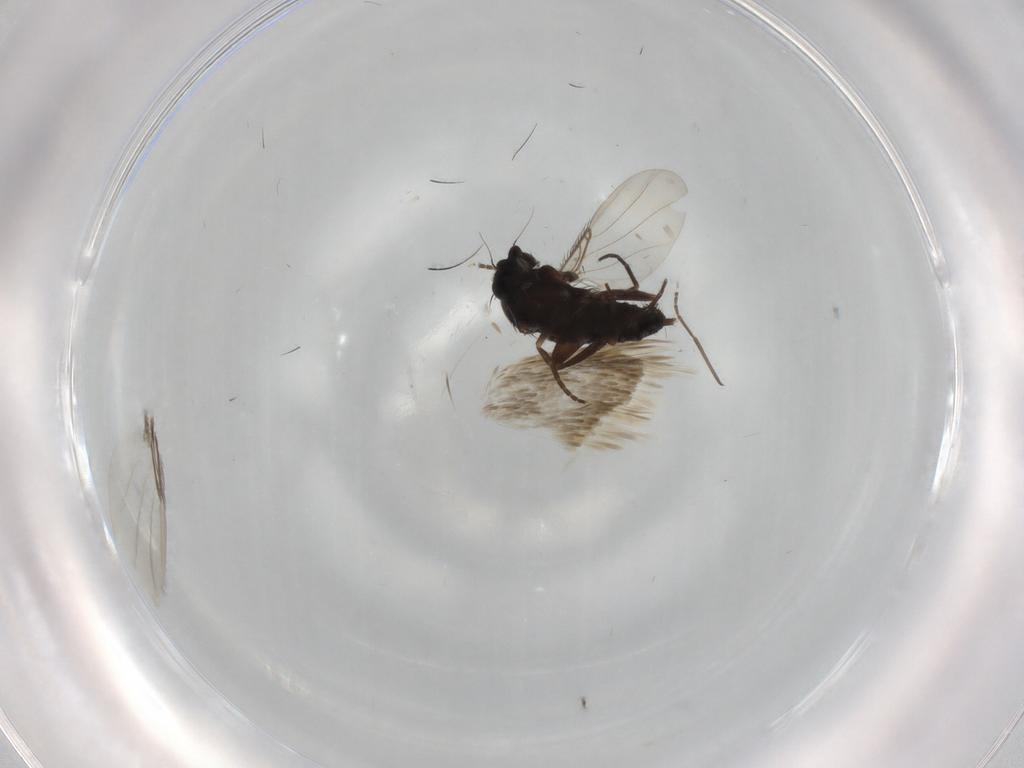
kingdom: Animalia
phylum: Arthropoda
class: Insecta
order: Diptera
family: Phoridae
